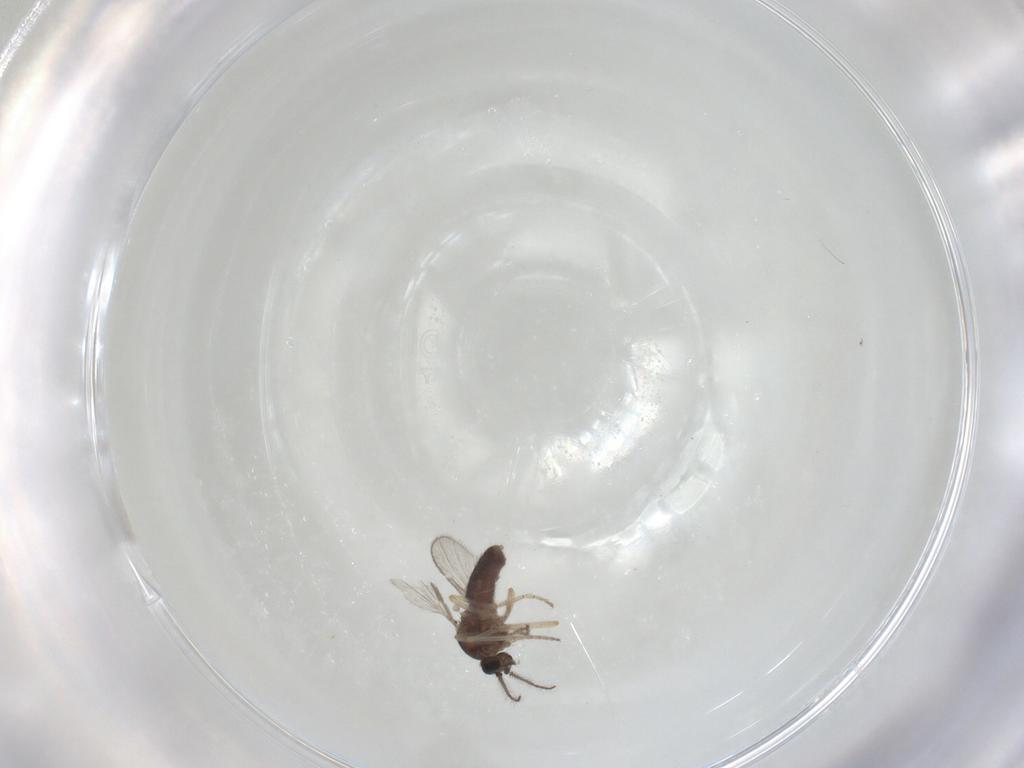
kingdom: Animalia
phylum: Arthropoda
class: Insecta
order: Diptera
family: Ceratopogonidae
